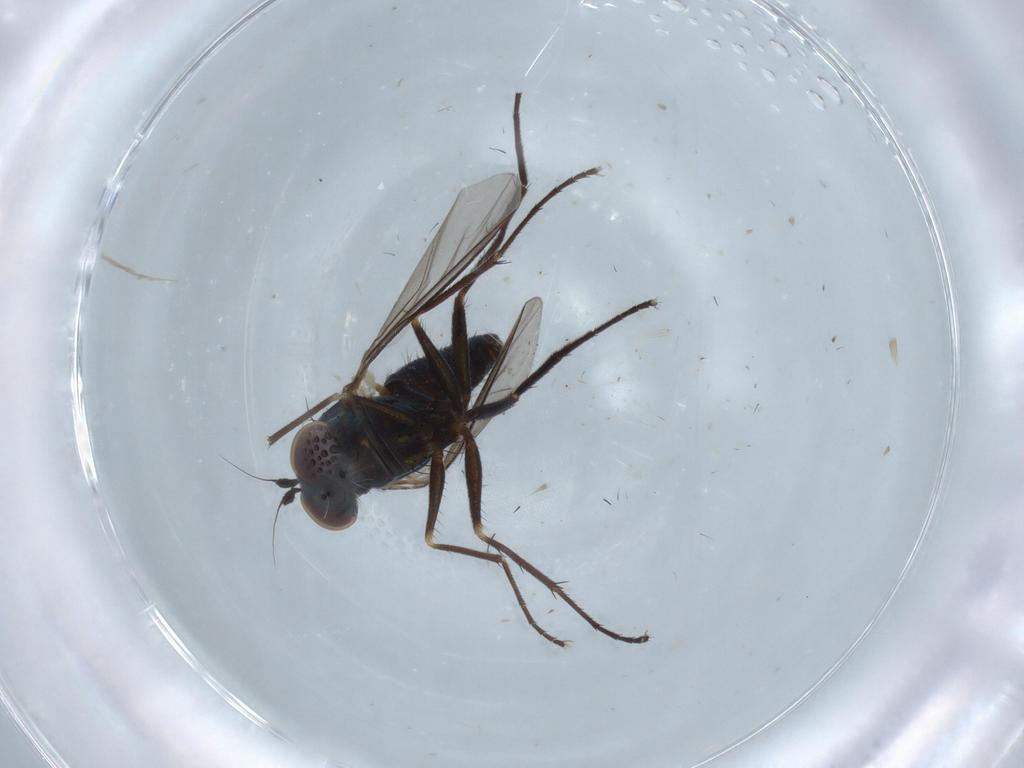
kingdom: Animalia
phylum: Arthropoda
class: Insecta
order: Diptera
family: Dolichopodidae
